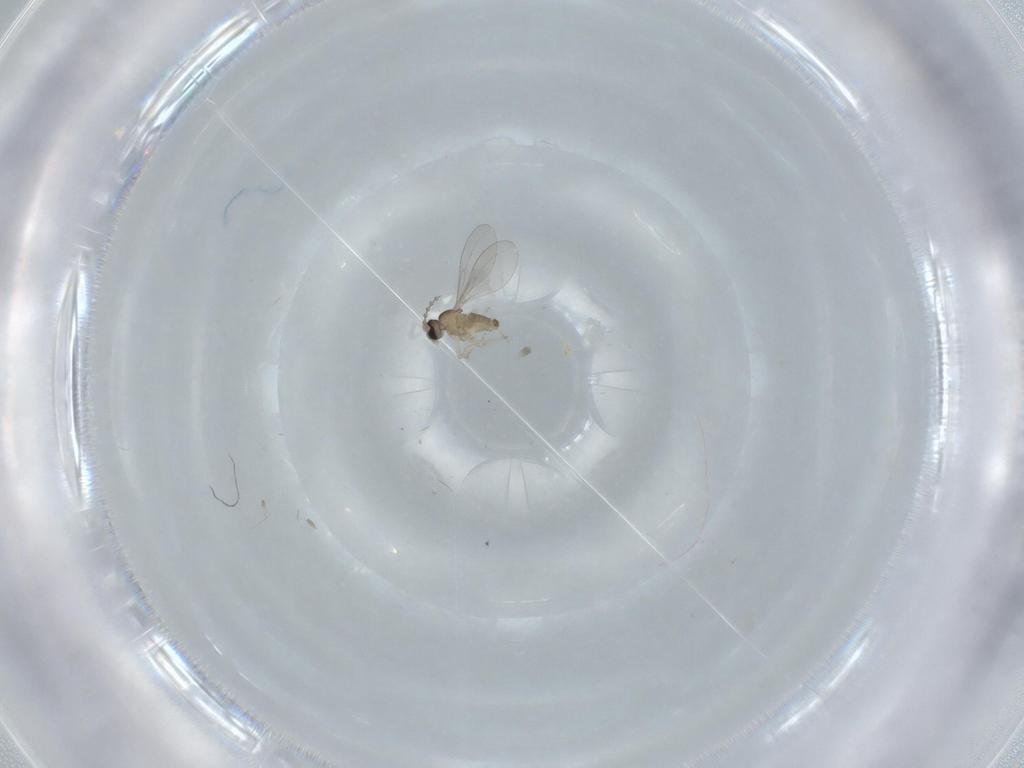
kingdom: Animalia
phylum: Arthropoda
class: Insecta
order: Diptera
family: Cecidomyiidae
